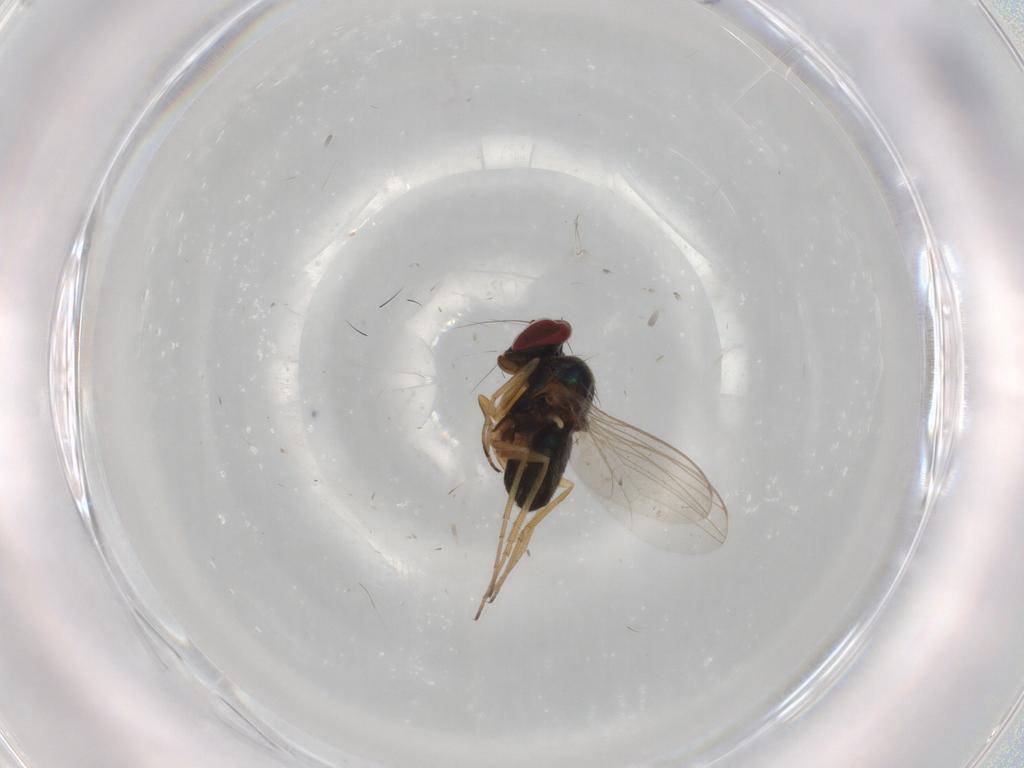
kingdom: Animalia
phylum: Arthropoda
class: Insecta
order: Diptera
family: Dolichopodidae
